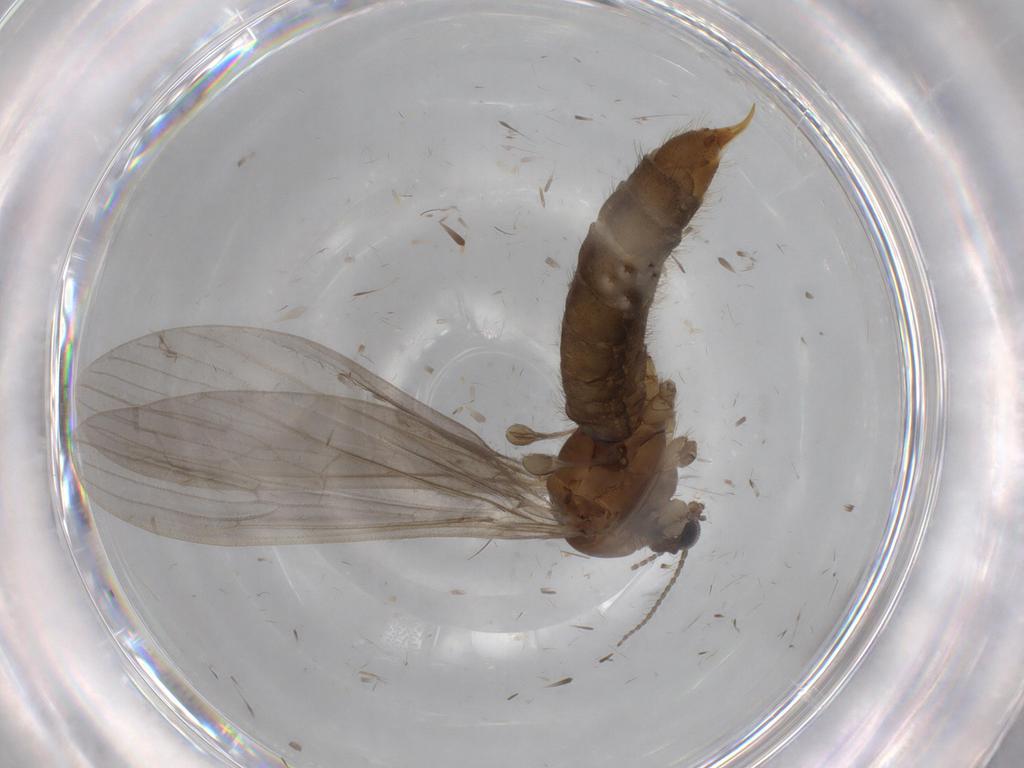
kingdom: Animalia
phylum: Arthropoda
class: Insecta
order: Diptera
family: Limoniidae
